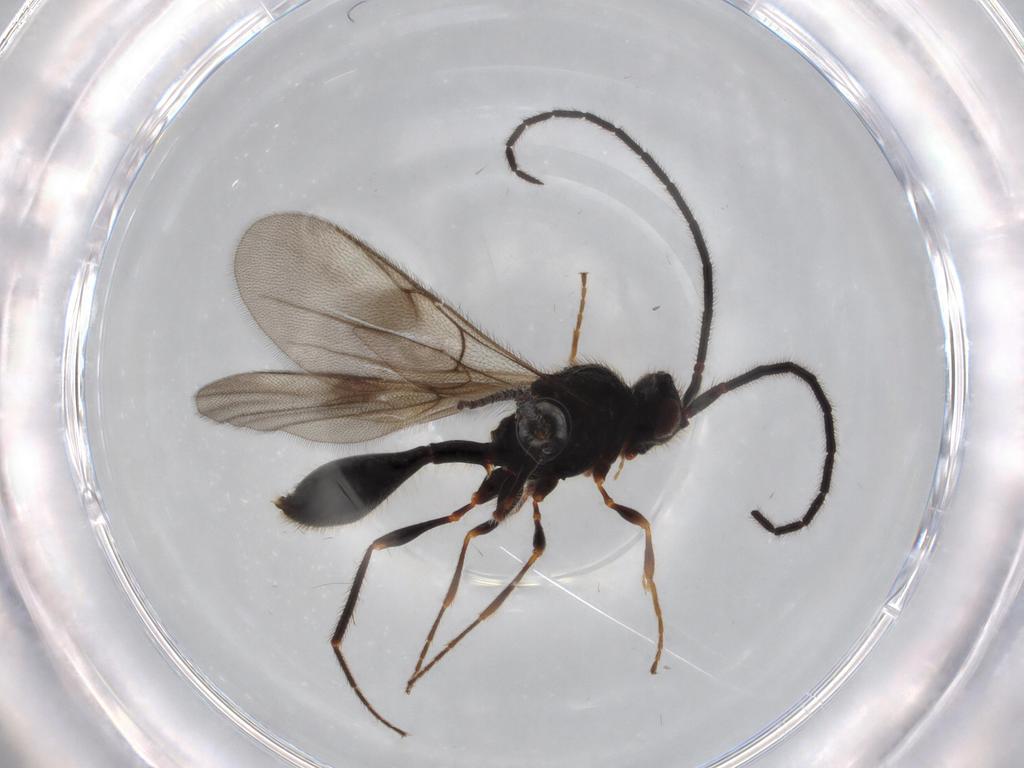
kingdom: Animalia
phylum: Arthropoda
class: Insecta
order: Hymenoptera
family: Diapriidae
